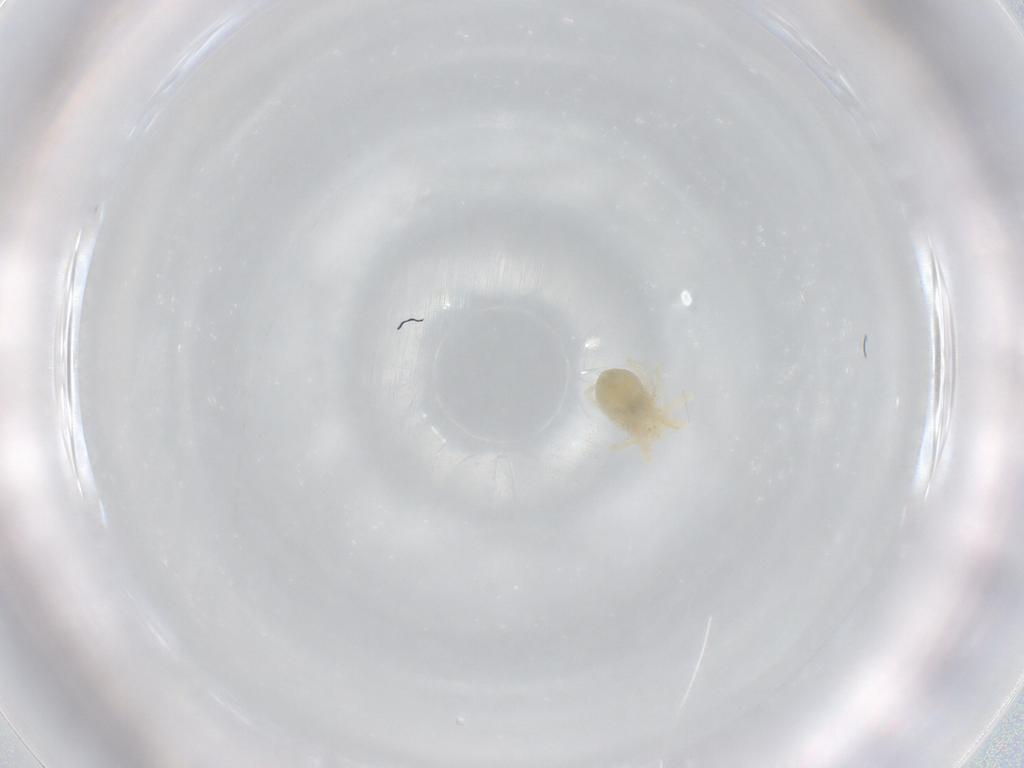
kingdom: Animalia
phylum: Arthropoda
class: Arachnida
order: Trombidiformes
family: Anystidae
